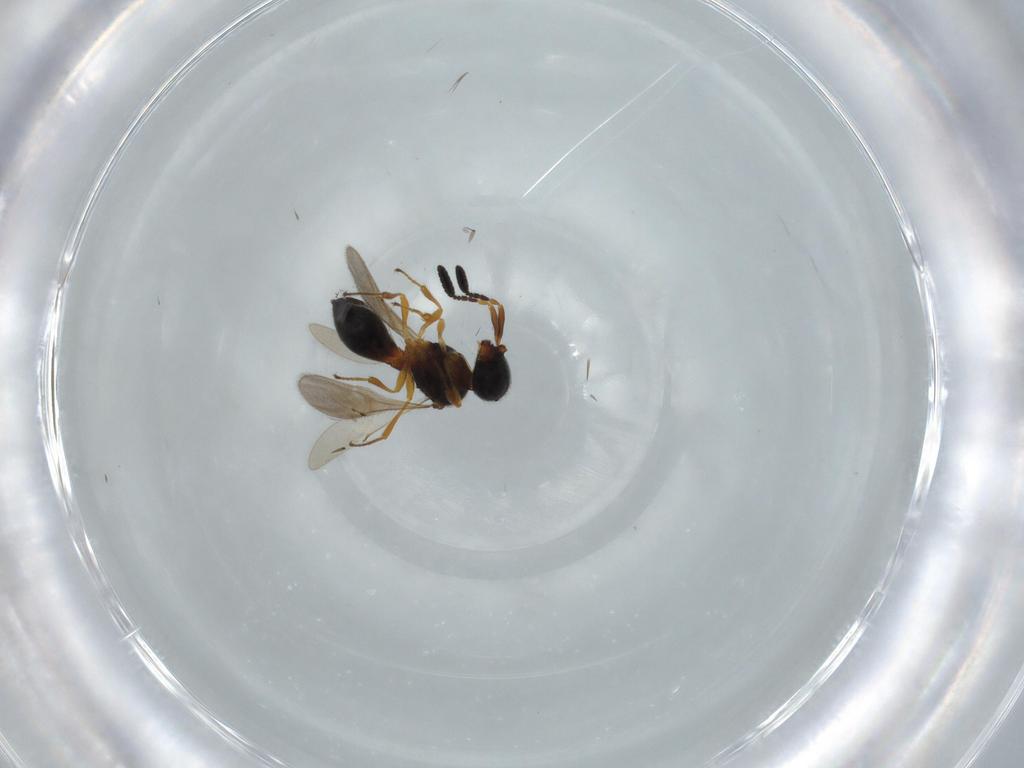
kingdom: Animalia
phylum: Arthropoda
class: Insecta
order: Hymenoptera
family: Scelionidae
